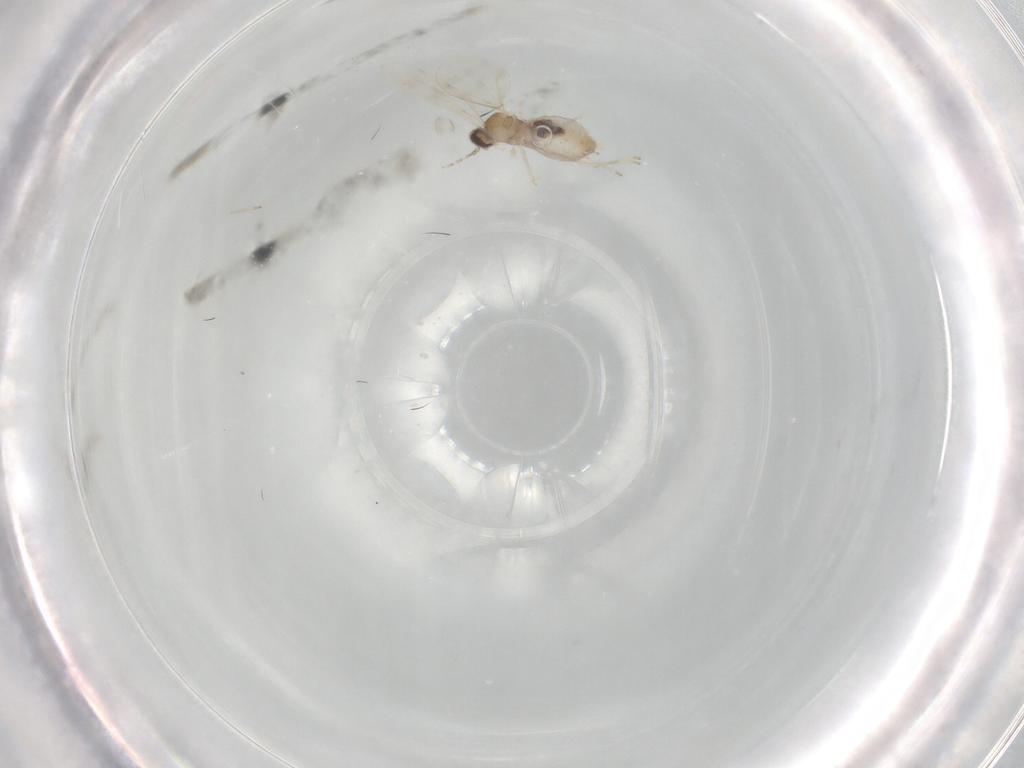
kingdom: Animalia
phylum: Arthropoda
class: Insecta
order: Diptera
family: Cecidomyiidae
